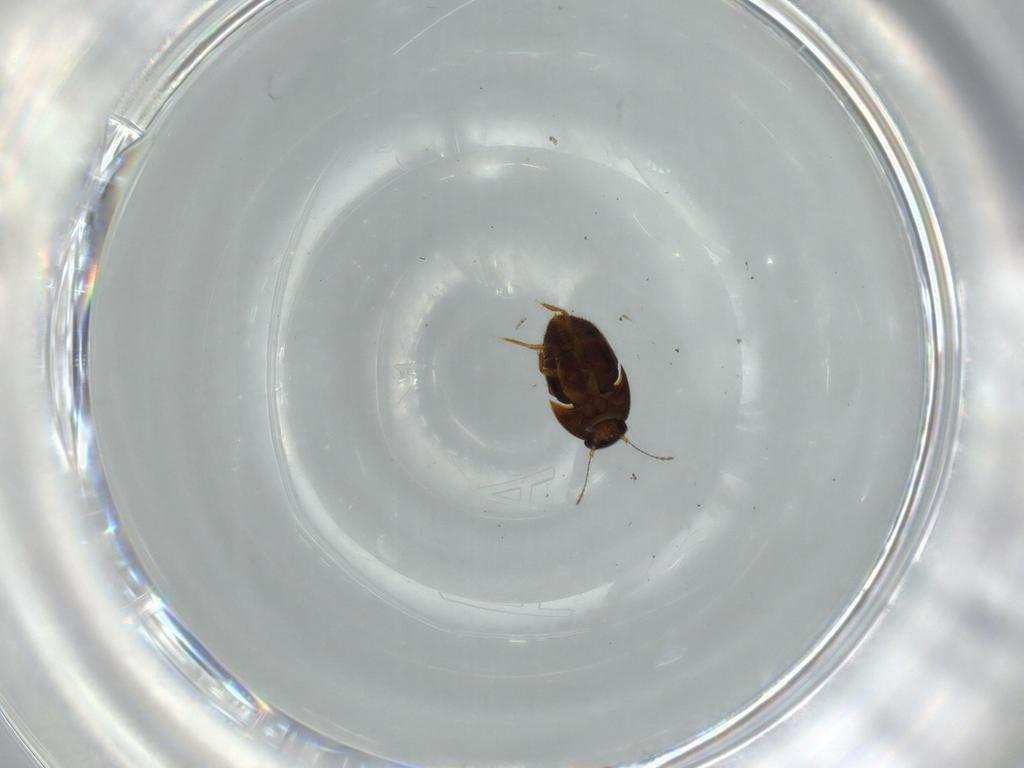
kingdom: Animalia
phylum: Arthropoda
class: Insecta
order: Coleoptera
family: Ptiliidae
